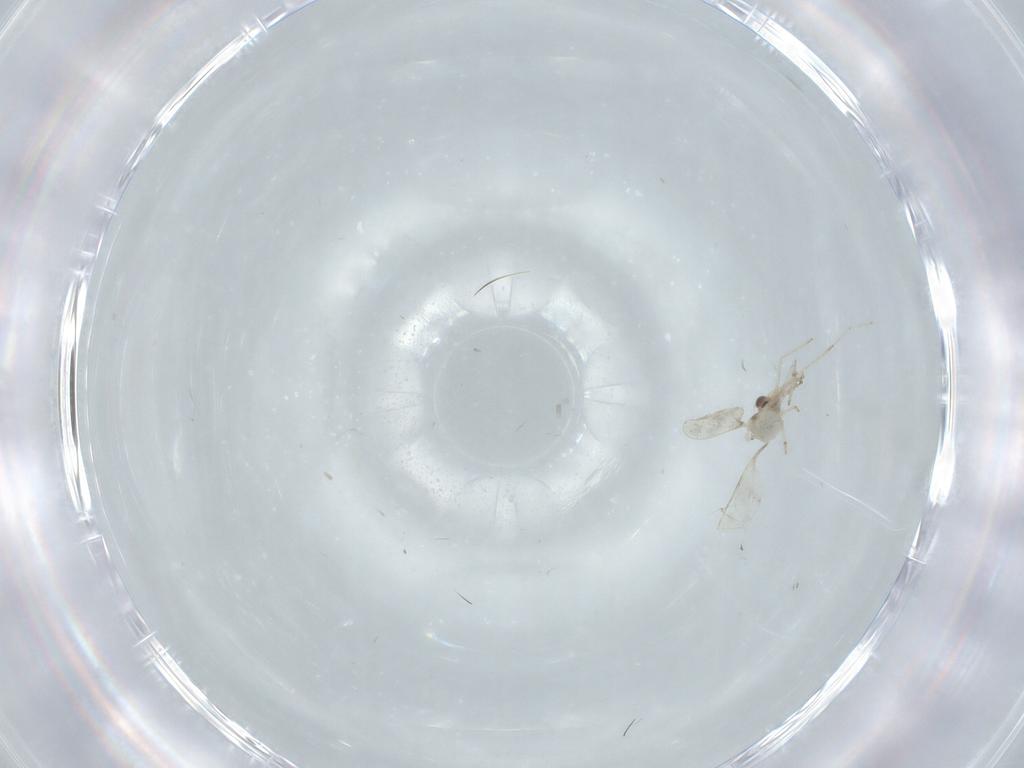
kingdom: Animalia
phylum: Arthropoda
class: Insecta
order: Diptera
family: Cecidomyiidae
